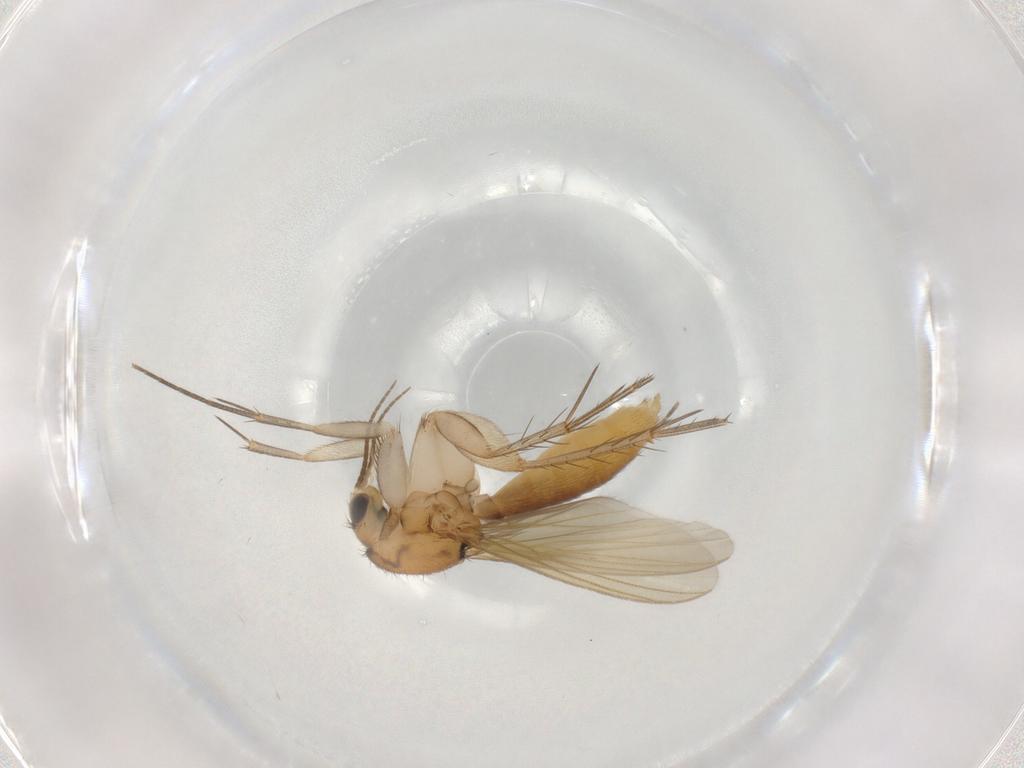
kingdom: Animalia
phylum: Arthropoda
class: Insecta
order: Diptera
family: Mycetophilidae
